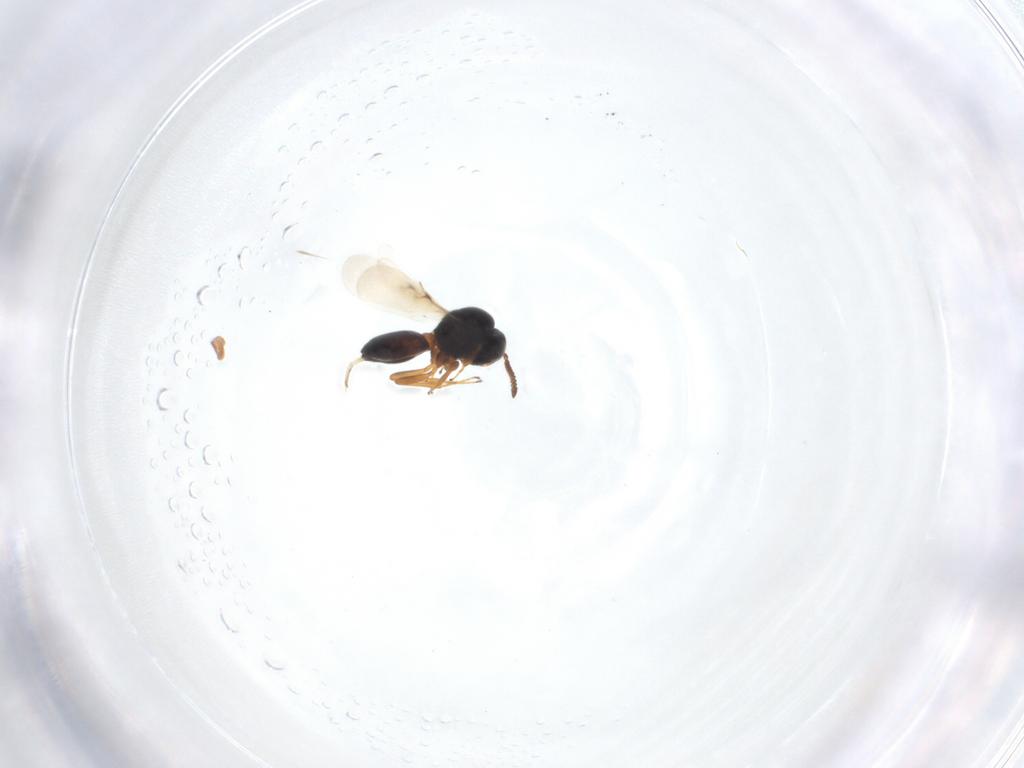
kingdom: Animalia
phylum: Arthropoda
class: Insecta
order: Hymenoptera
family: Scelionidae
